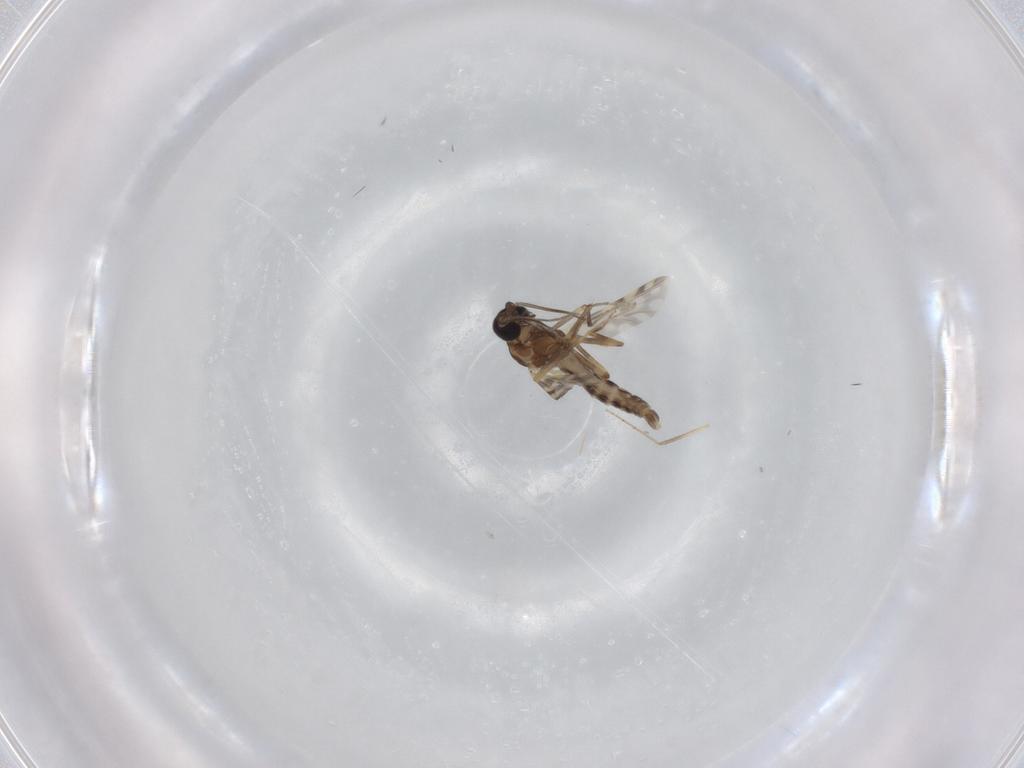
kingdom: Animalia
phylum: Arthropoda
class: Insecta
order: Diptera
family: Ceratopogonidae
